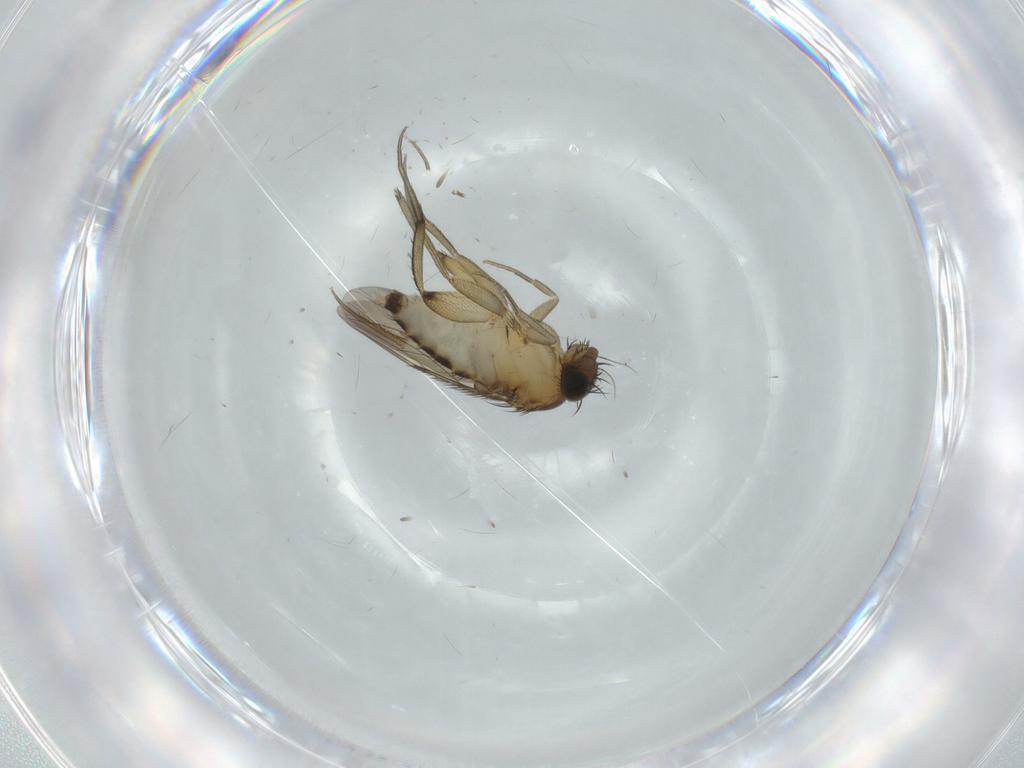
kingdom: Animalia
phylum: Arthropoda
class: Insecta
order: Diptera
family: Phoridae
